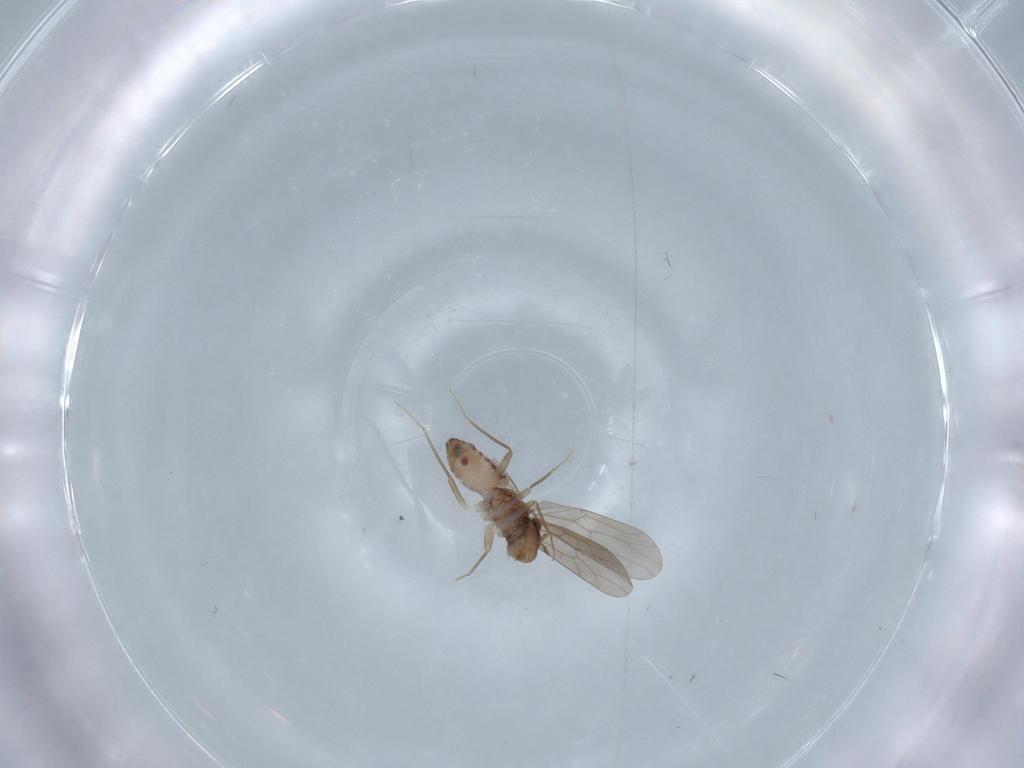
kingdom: Animalia
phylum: Arthropoda
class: Insecta
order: Psocodea
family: Lepidopsocidae
